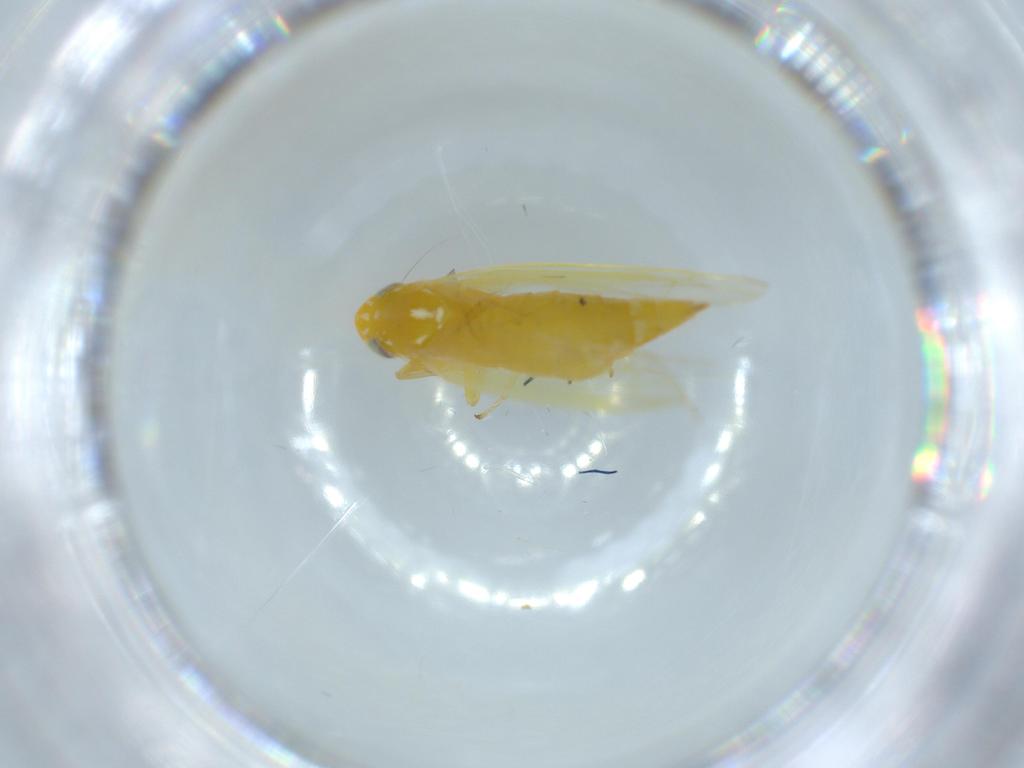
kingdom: Animalia
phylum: Arthropoda
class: Insecta
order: Hemiptera
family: Cicadellidae
